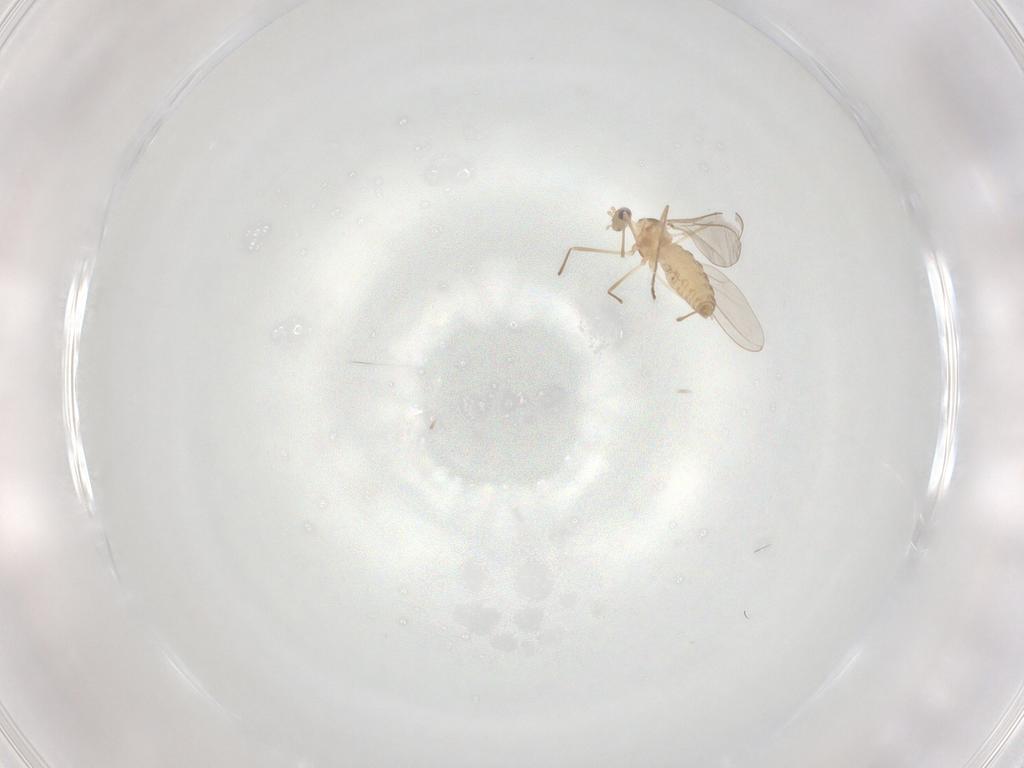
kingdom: Animalia
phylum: Arthropoda
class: Insecta
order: Diptera
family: Cecidomyiidae
